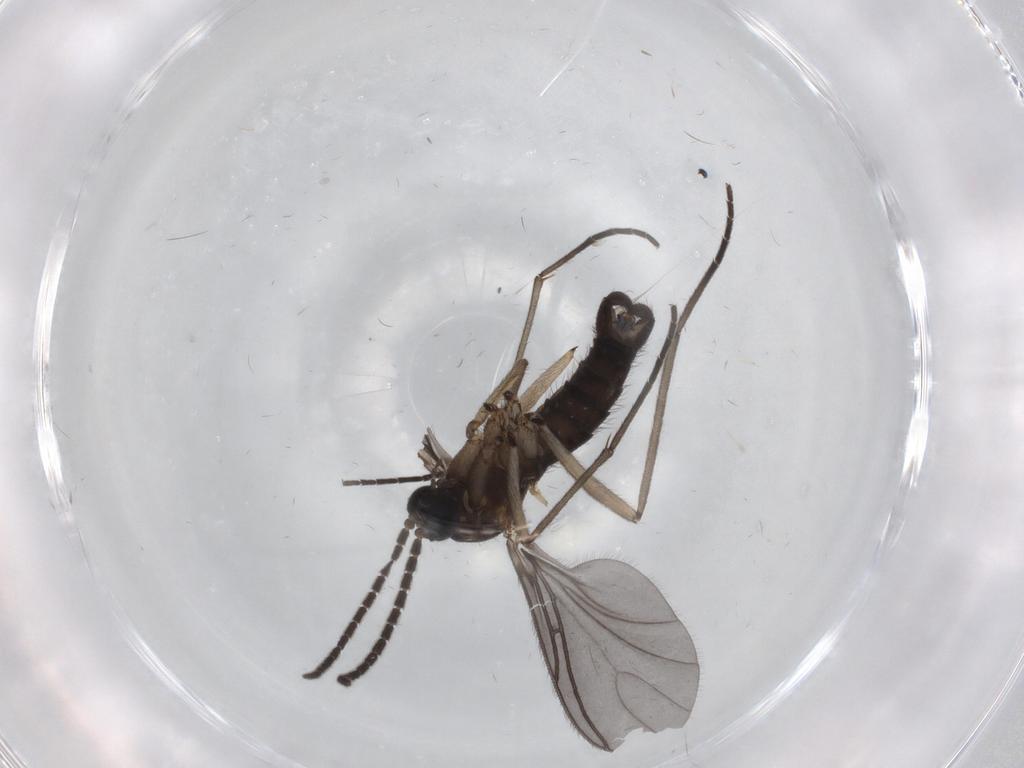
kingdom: Animalia
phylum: Arthropoda
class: Insecta
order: Diptera
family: Sciaridae
